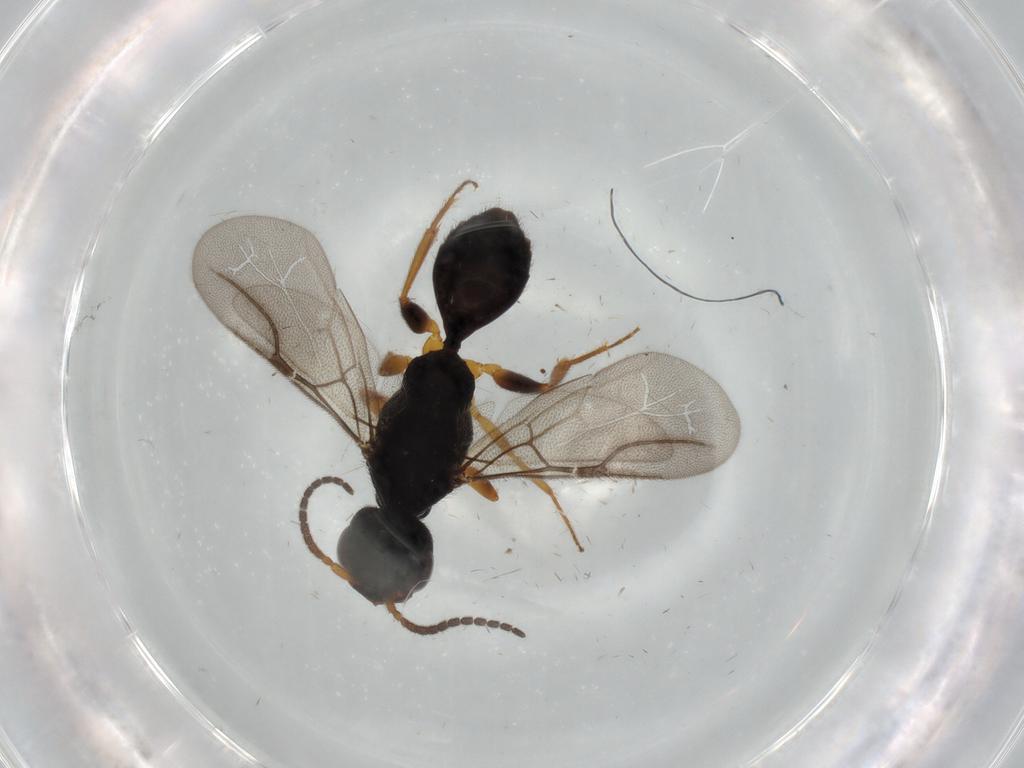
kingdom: Animalia
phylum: Arthropoda
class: Insecta
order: Hymenoptera
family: Bethylidae
